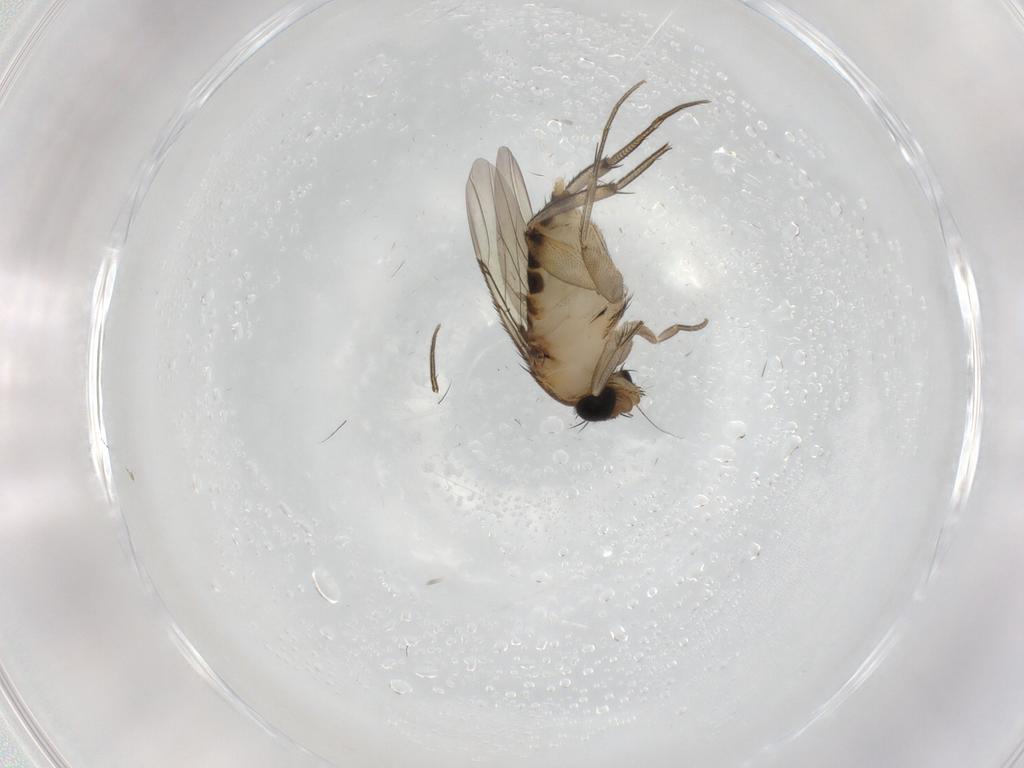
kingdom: Animalia
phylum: Arthropoda
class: Insecta
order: Diptera
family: Phoridae
